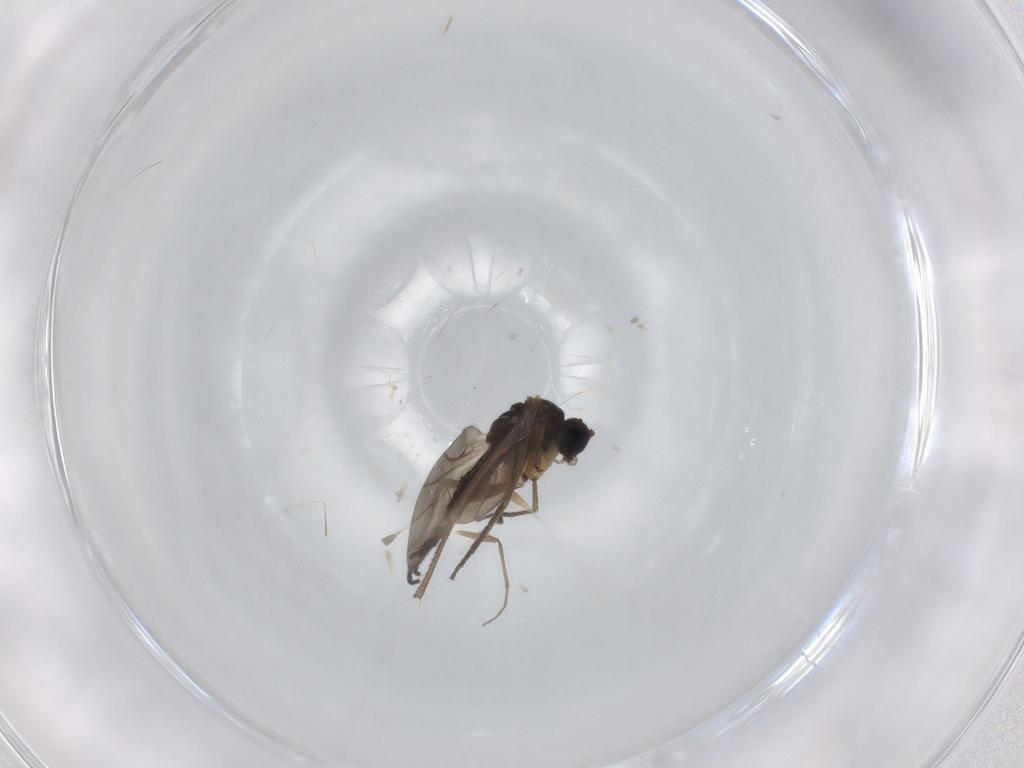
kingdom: Animalia
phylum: Arthropoda
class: Insecta
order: Diptera
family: Sciaridae
